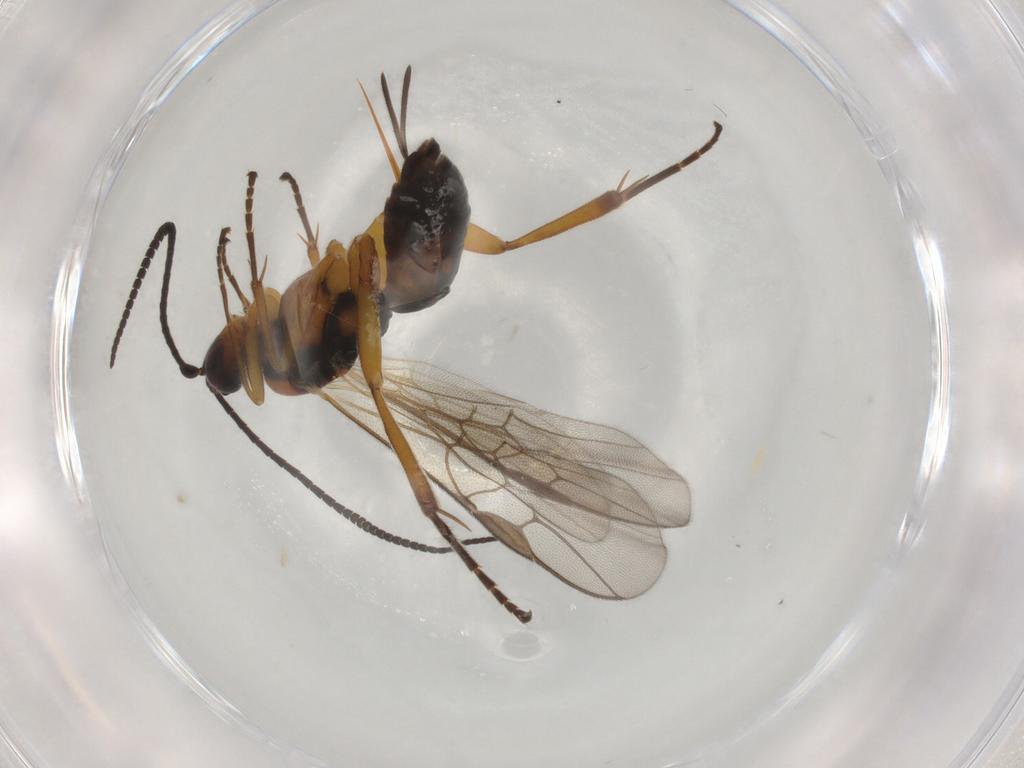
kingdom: Animalia
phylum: Arthropoda
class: Insecta
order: Hymenoptera
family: Braconidae
